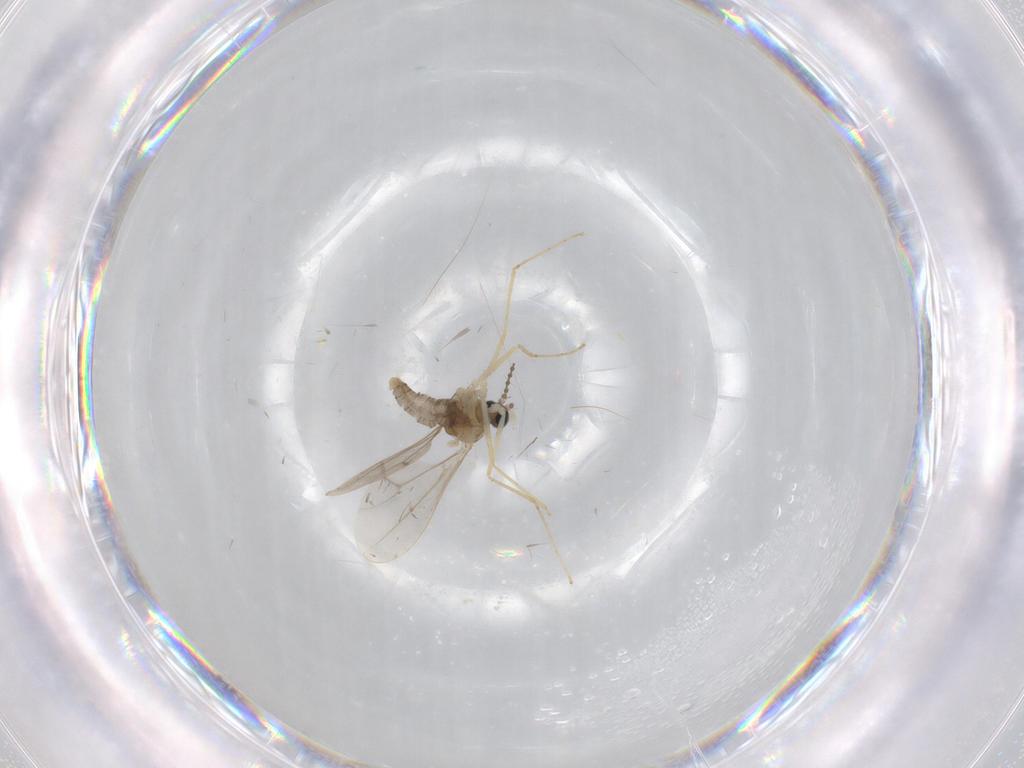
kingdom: Animalia
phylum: Arthropoda
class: Insecta
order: Diptera
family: Cecidomyiidae
